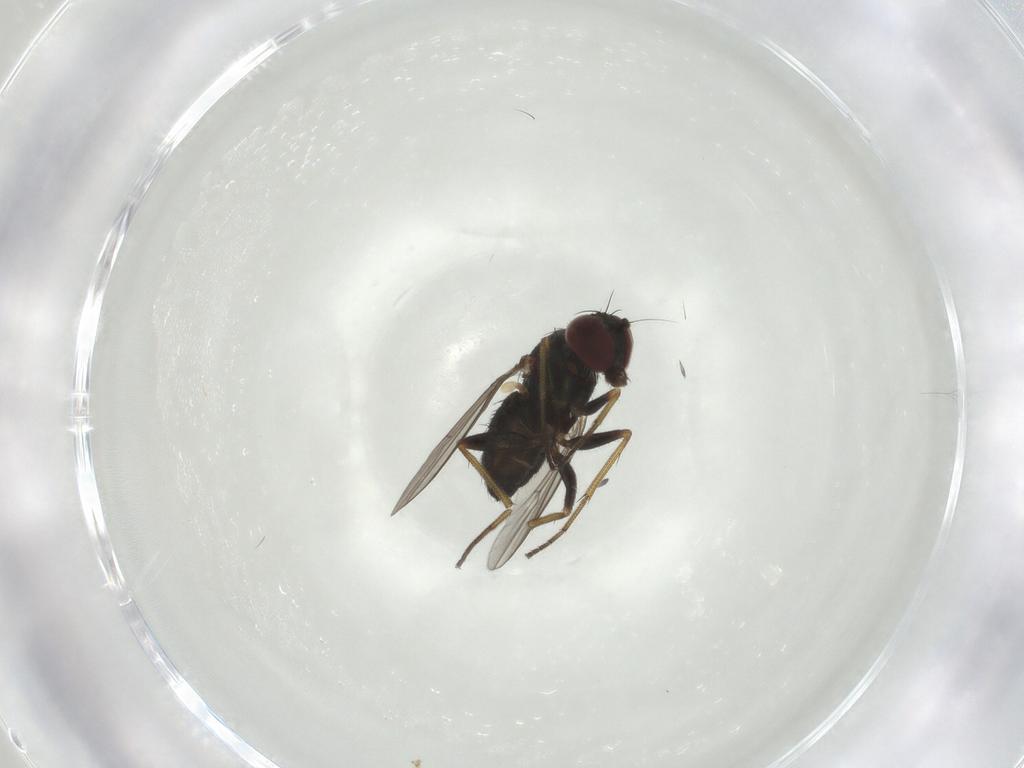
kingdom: Animalia
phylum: Arthropoda
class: Insecta
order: Diptera
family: Dolichopodidae
